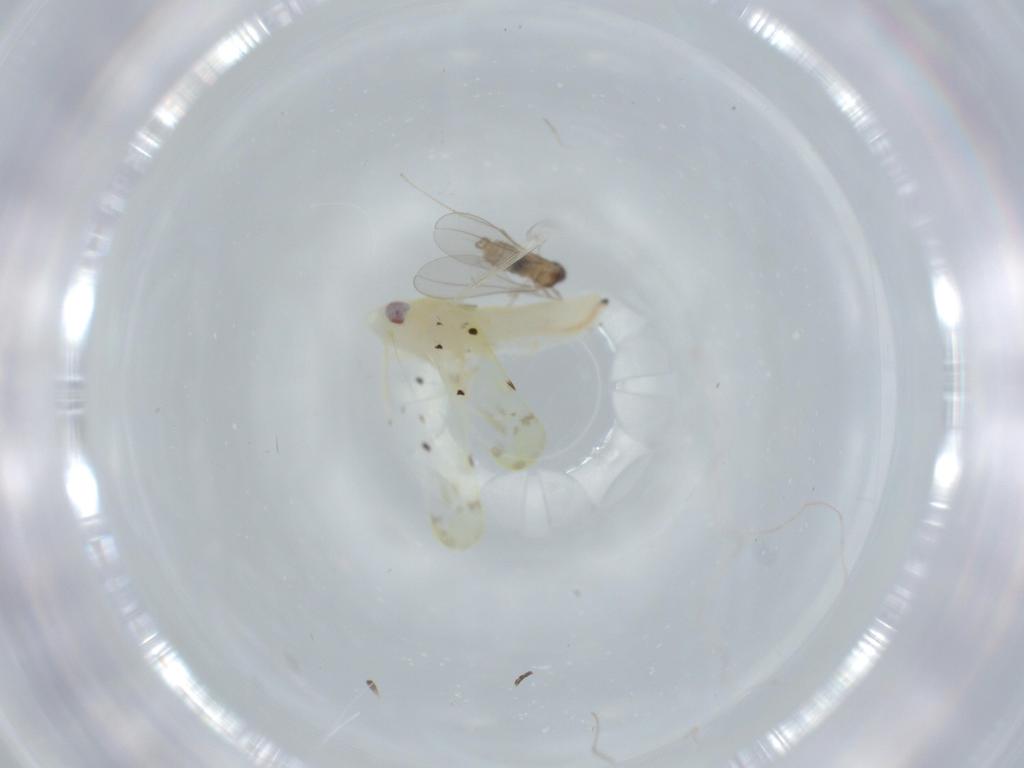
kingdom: Animalia
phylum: Arthropoda
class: Insecta
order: Diptera
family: Cecidomyiidae
